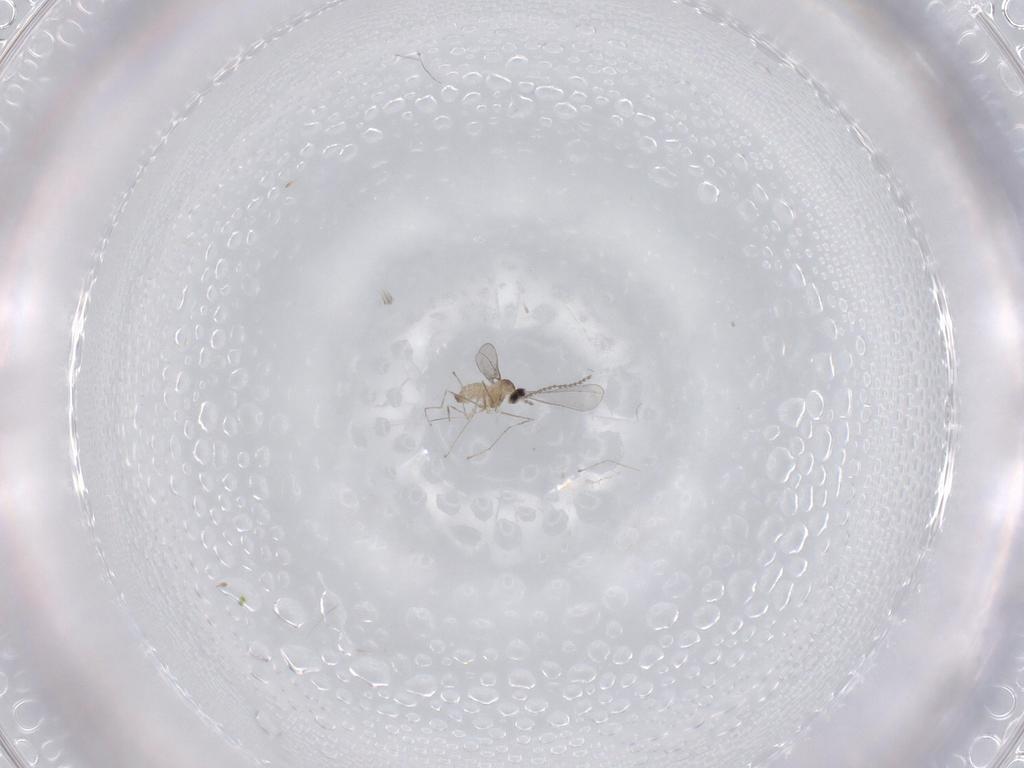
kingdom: Animalia
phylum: Arthropoda
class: Insecta
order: Diptera
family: Cecidomyiidae
